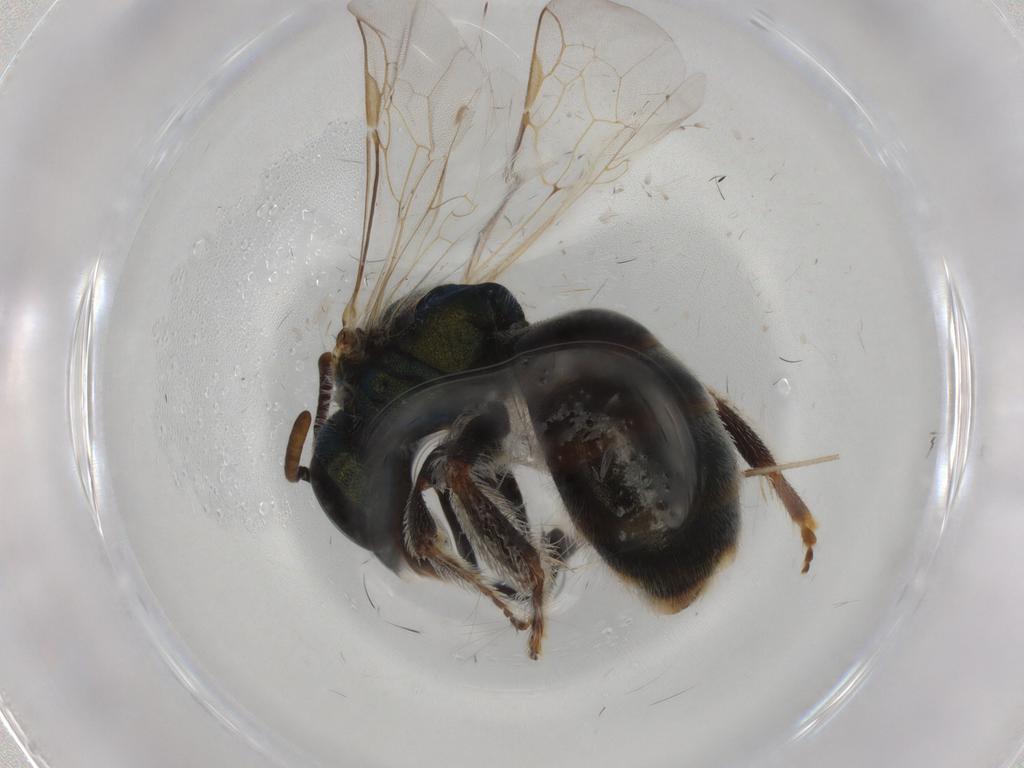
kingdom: Animalia
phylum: Arthropoda
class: Insecta
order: Hymenoptera
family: Halictidae
